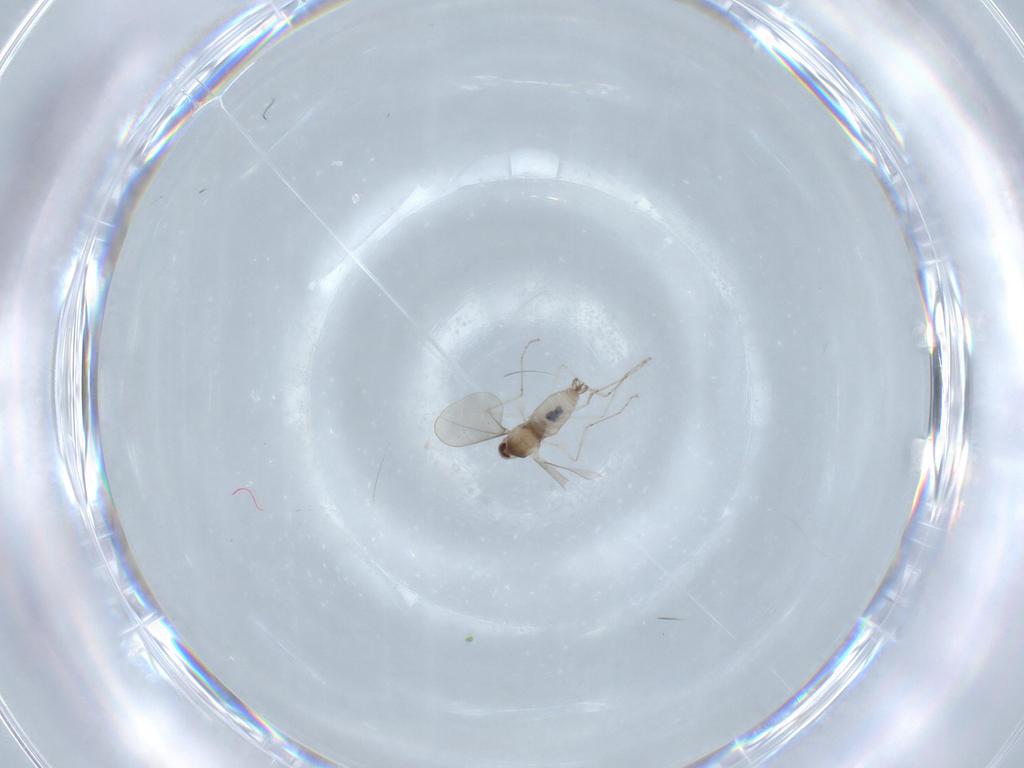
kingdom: Animalia
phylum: Arthropoda
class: Insecta
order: Diptera
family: Cecidomyiidae
